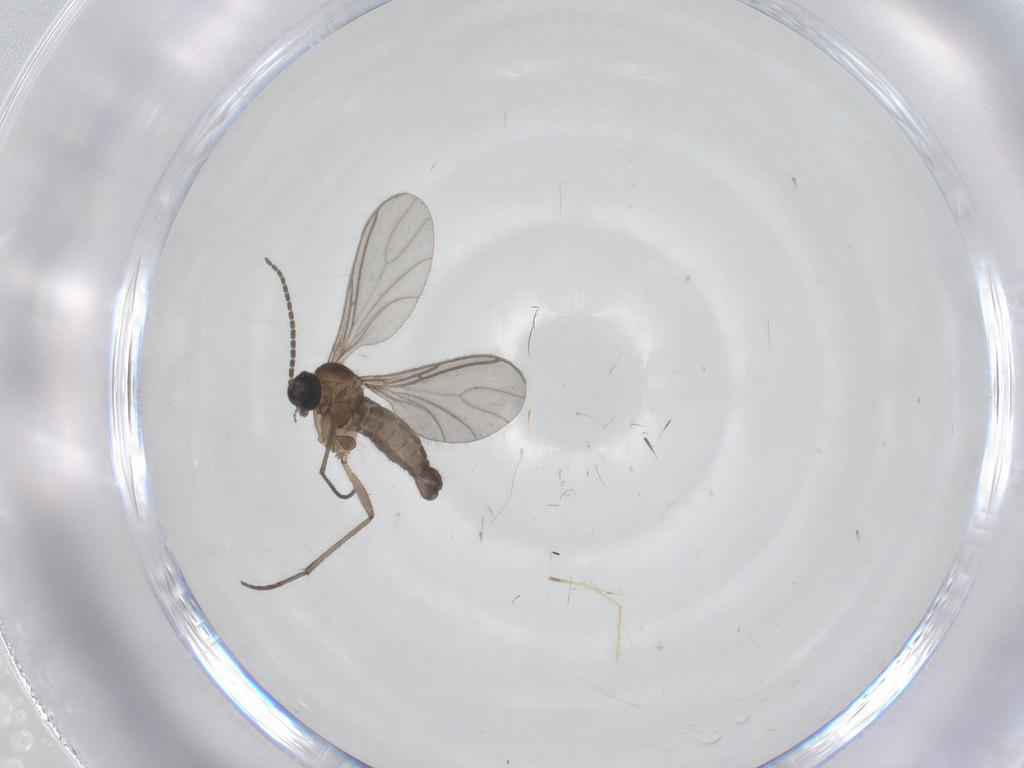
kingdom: Animalia
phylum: Arthropoda
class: Insecta
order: Diptera
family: Sciaridae
